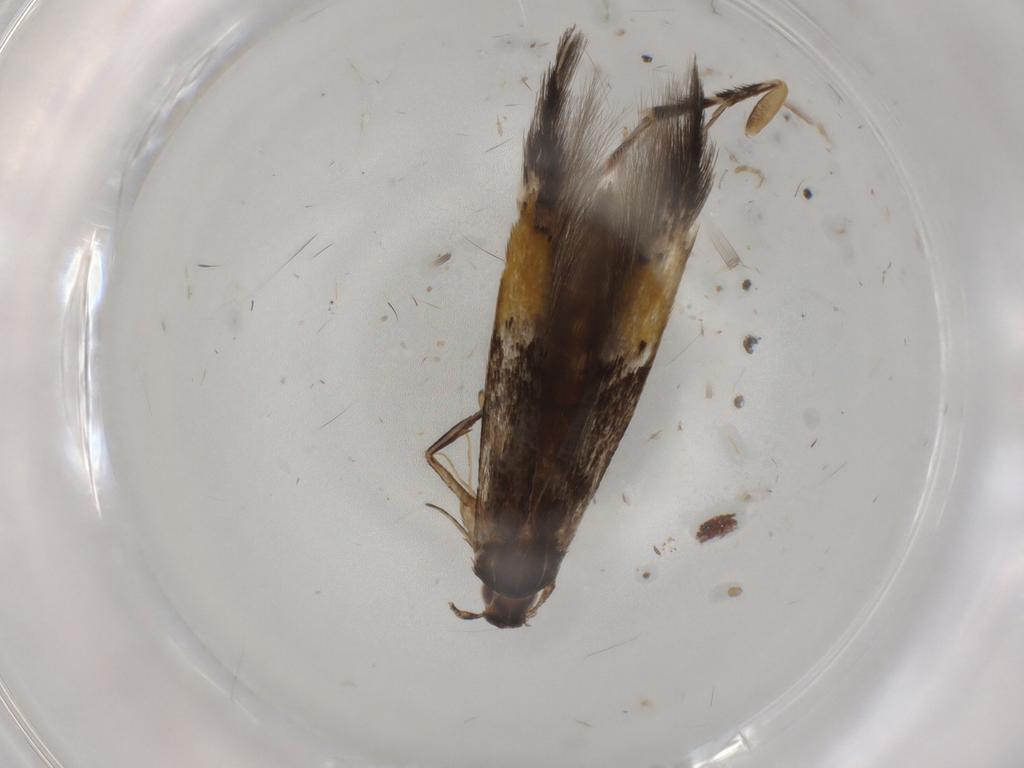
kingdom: Animalia
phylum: Arthropoda
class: Insecta
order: Lepidoptera
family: Cosmopterigidae
